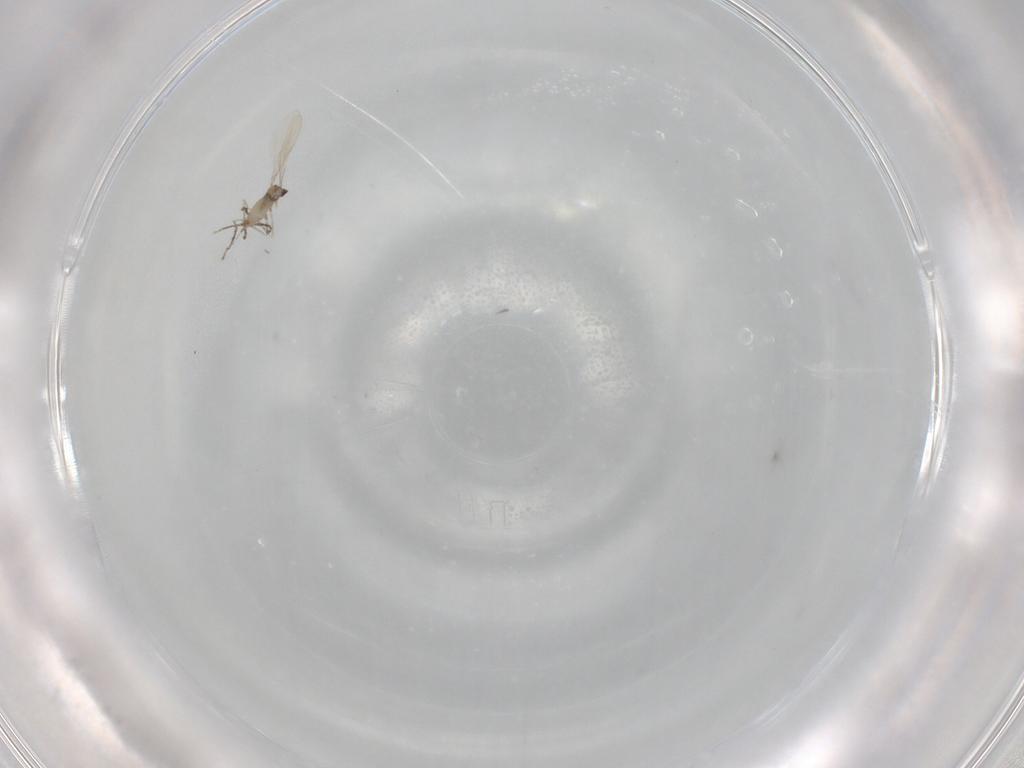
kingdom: Animalia
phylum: Arthropoda
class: Insecta
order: Diptera
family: Cecidomyiidae
